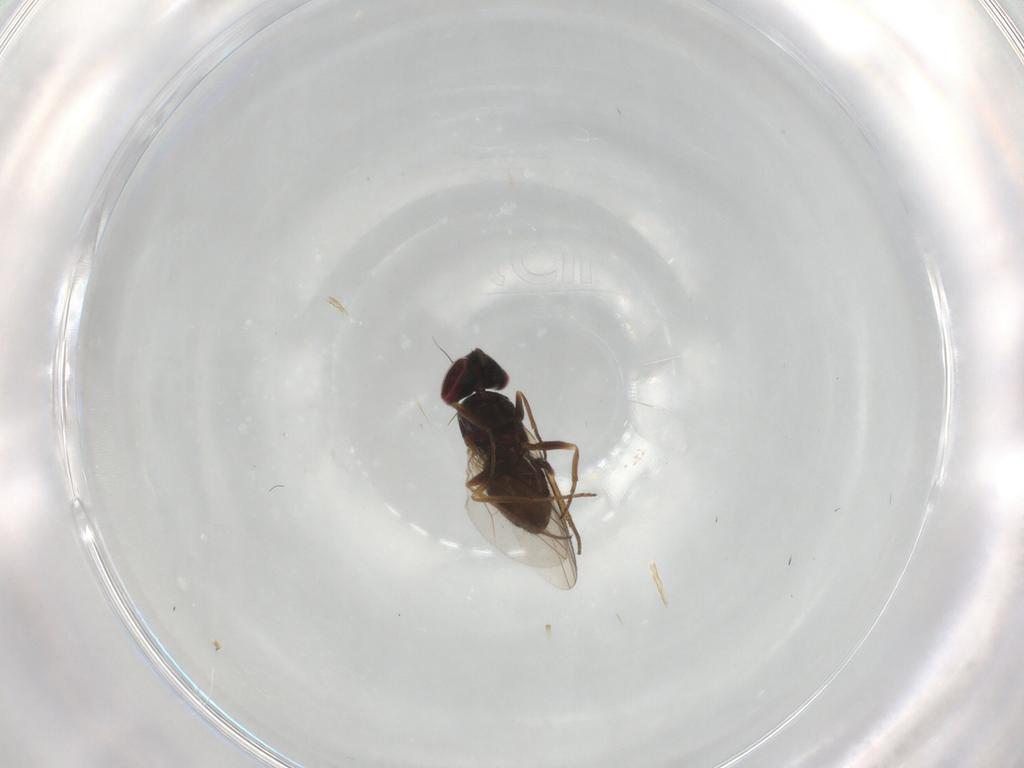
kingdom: Animalia
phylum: Arthropoda
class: Insecta
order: Diptera
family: Dolichopodidae
